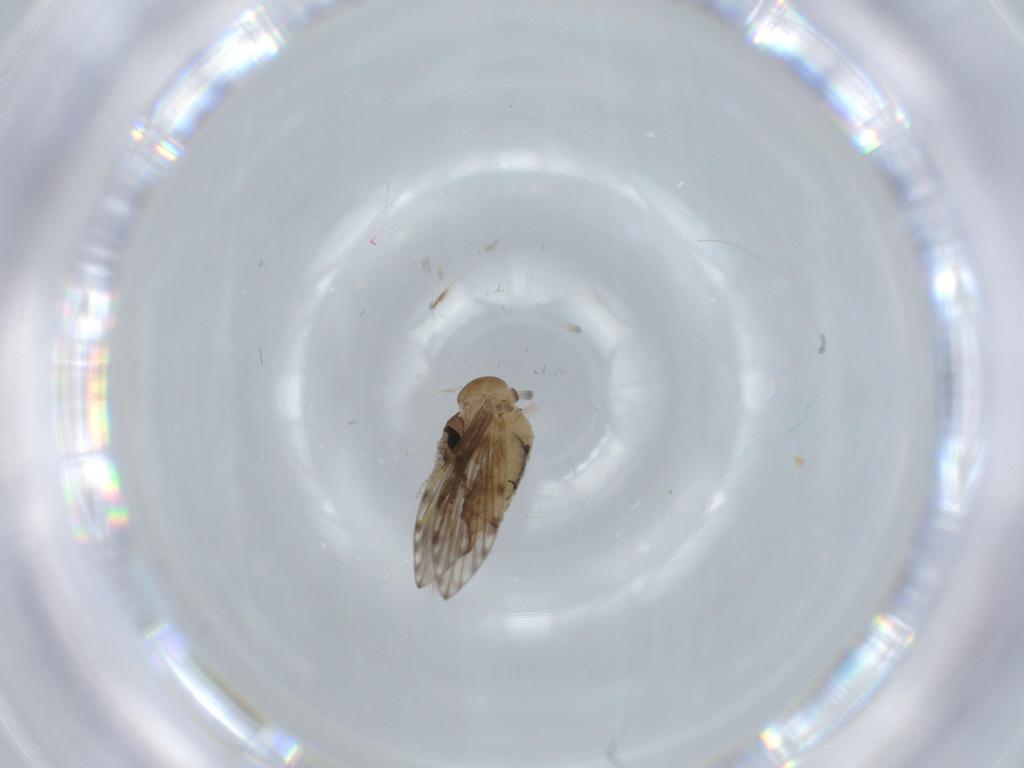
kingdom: Animalia
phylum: Arthropoda
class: Insecta
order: Diptera
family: Psychodidae
